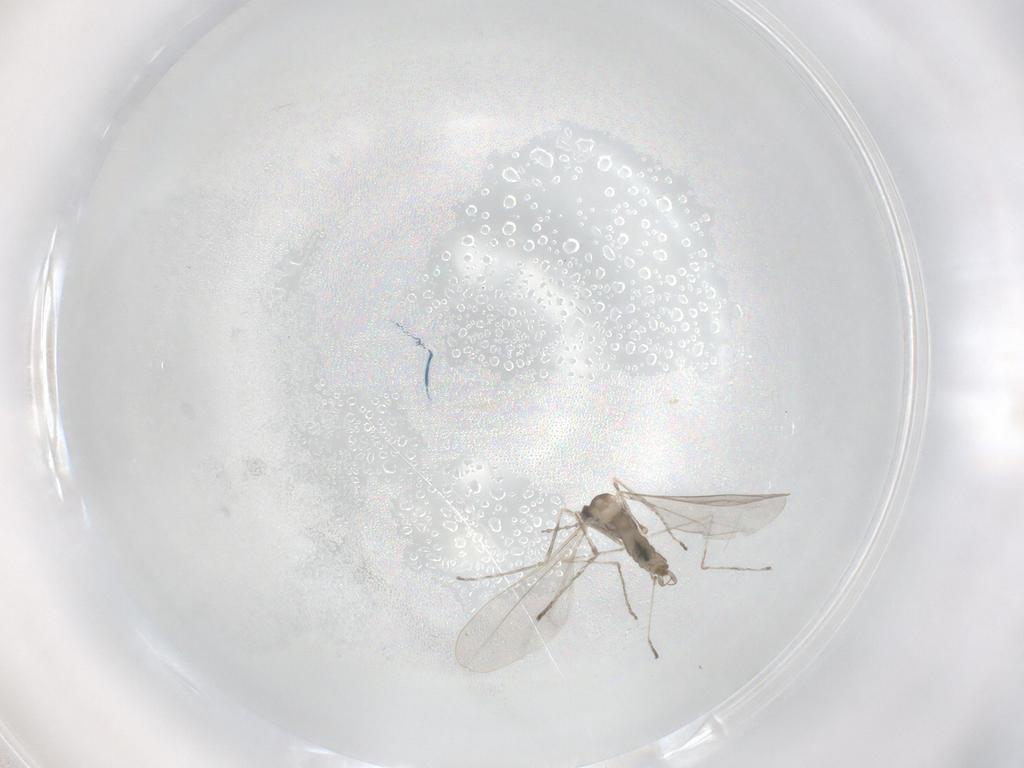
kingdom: Animalia
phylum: Arthropoda
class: Insecta
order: Diptera
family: Cecidomyiidae
